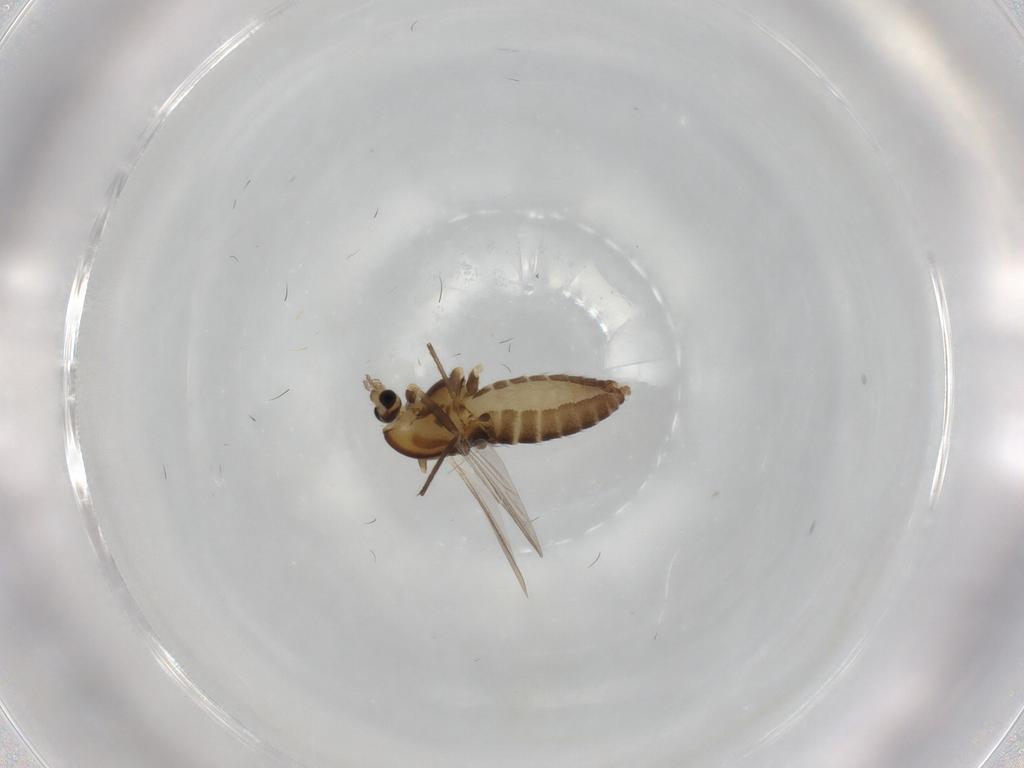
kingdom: Animalia
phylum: Arthropoda
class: Insecta
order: Diptera
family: Chironomidae
